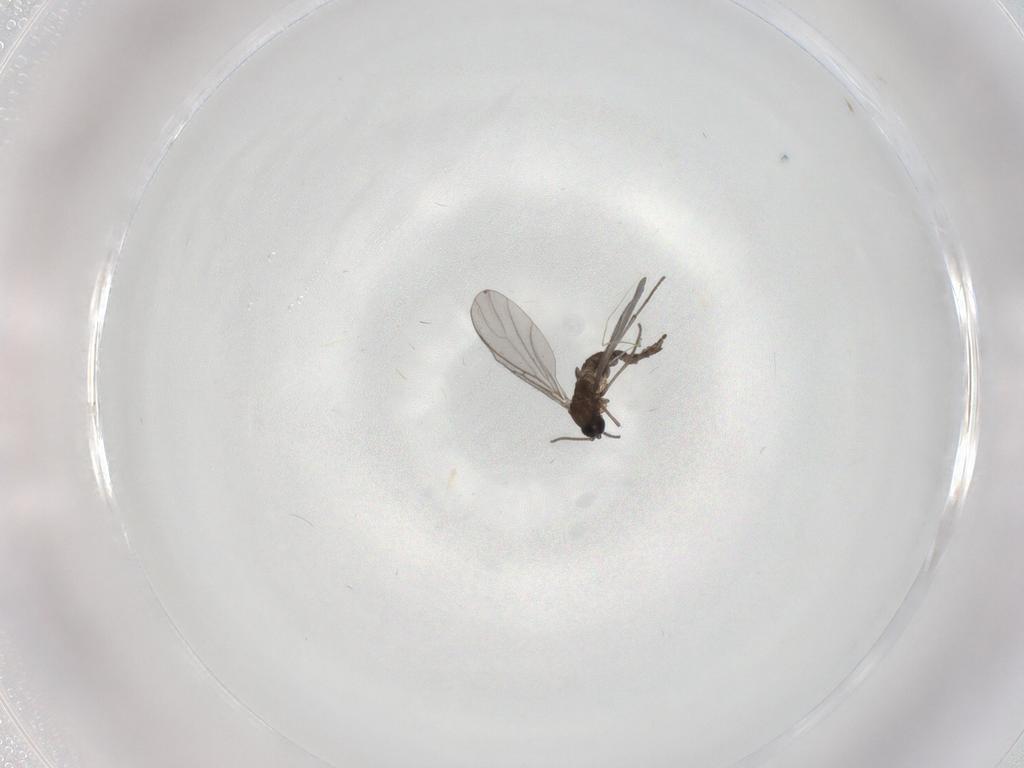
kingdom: Animalia
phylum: Arthropoda
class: Insecta
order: Diptera
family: Sciaridae
